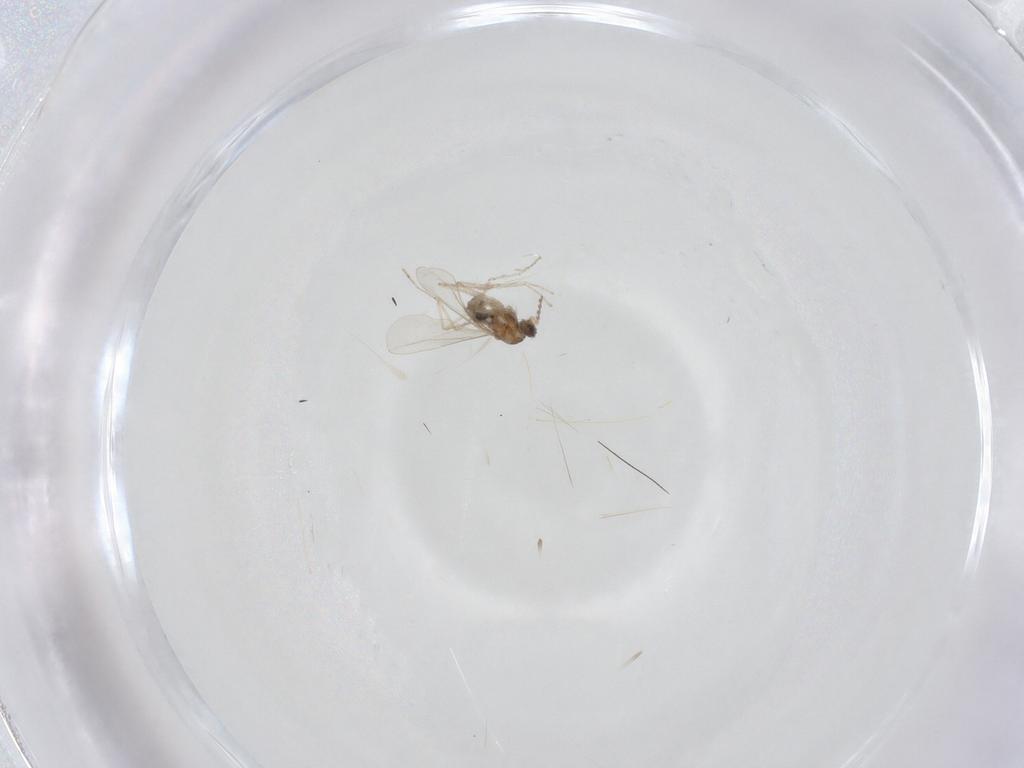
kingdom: Animalia
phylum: Arthropoda
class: Insecta
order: Diptera
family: Cecidomyiidae
